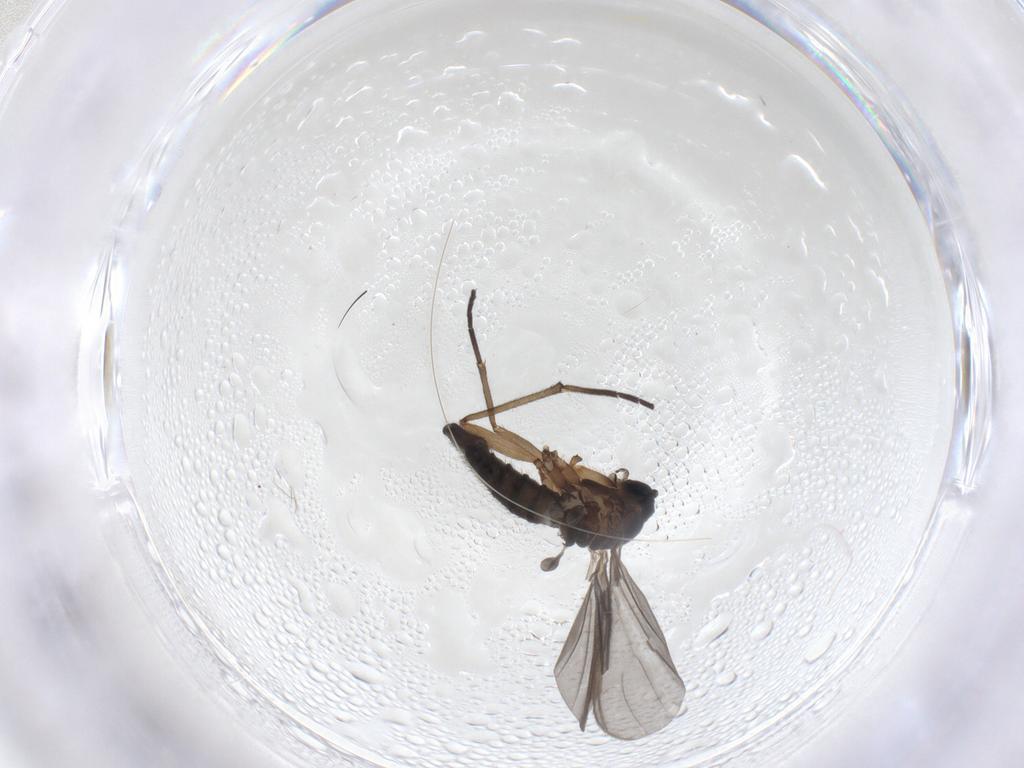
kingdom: Animalia
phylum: Arthropoda
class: Insecta
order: Diptera
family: Sciaridae
